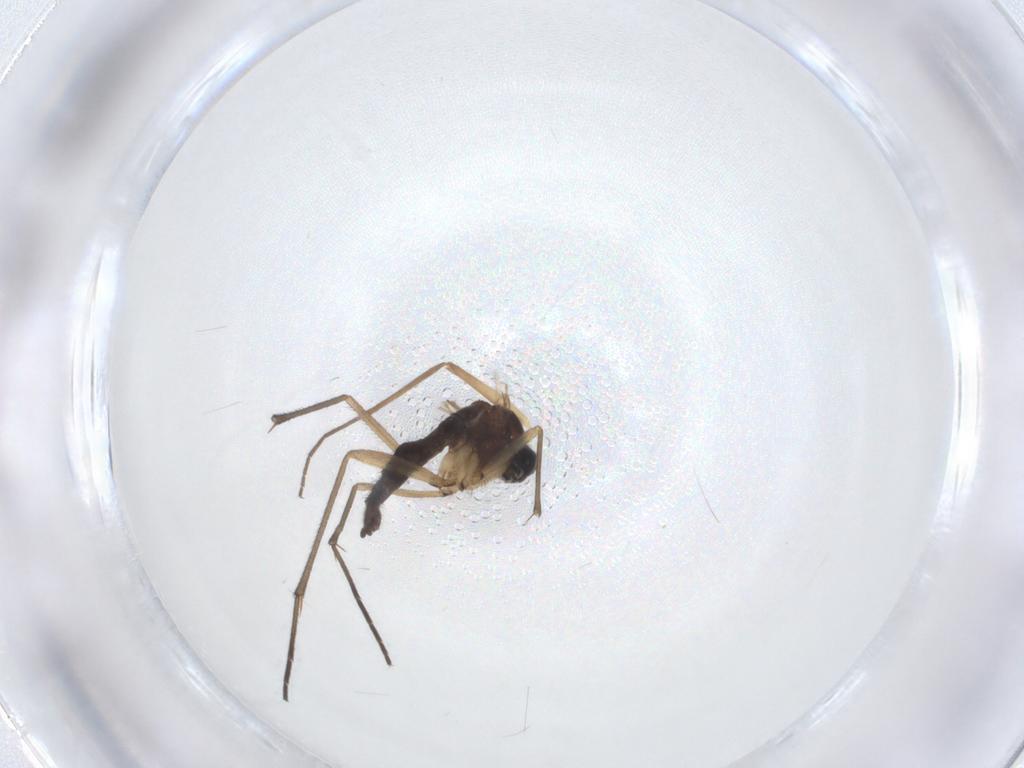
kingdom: Animalia
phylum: Arthropoda
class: Insecta
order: Diptera
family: Sciaridae
